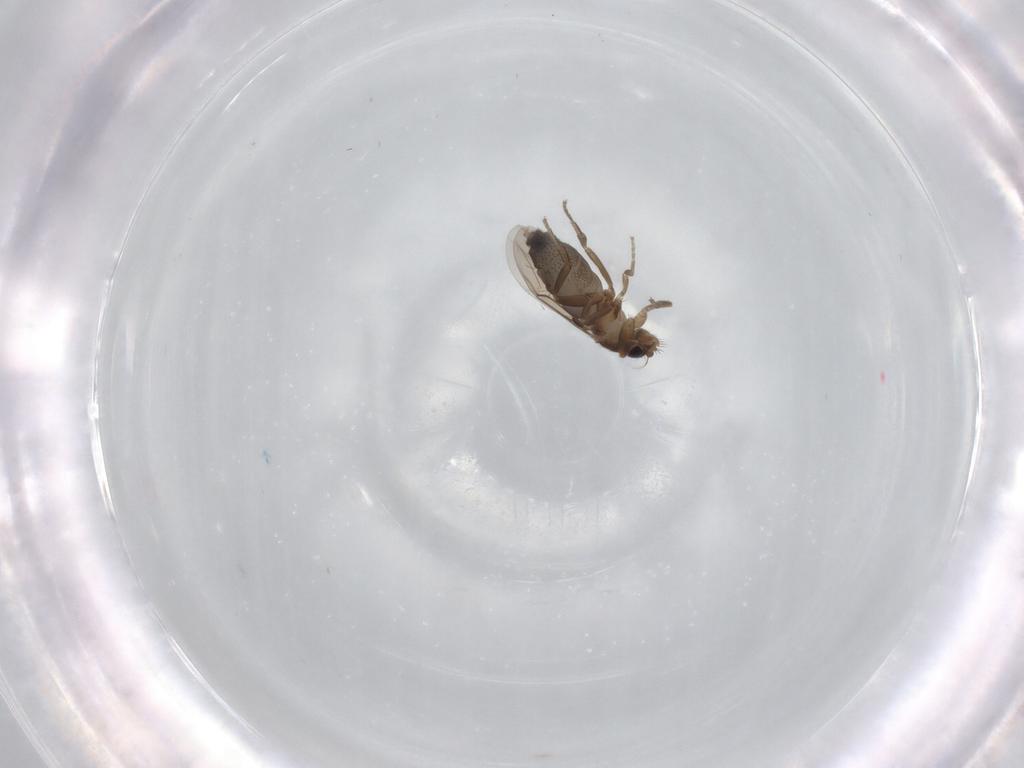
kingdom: Animalia
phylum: Arthropoda
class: Insecta
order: Diptera
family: Phoridae
